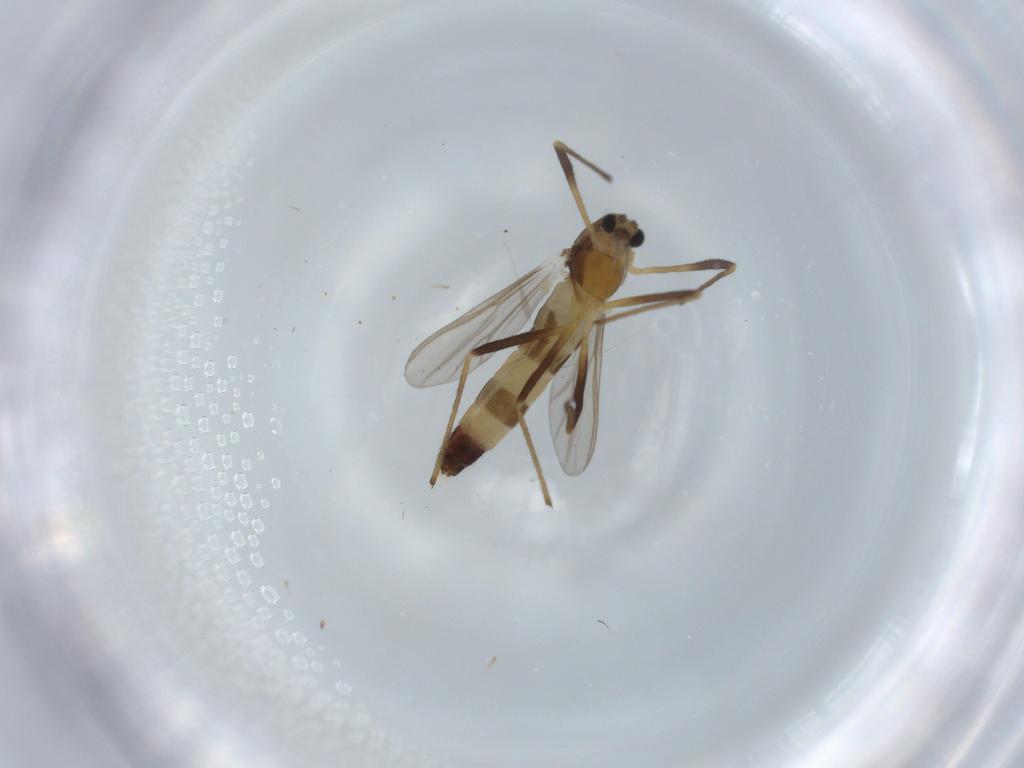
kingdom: Animalia
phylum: Arthropoda
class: Insecta
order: Diptera
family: Chironomidae
